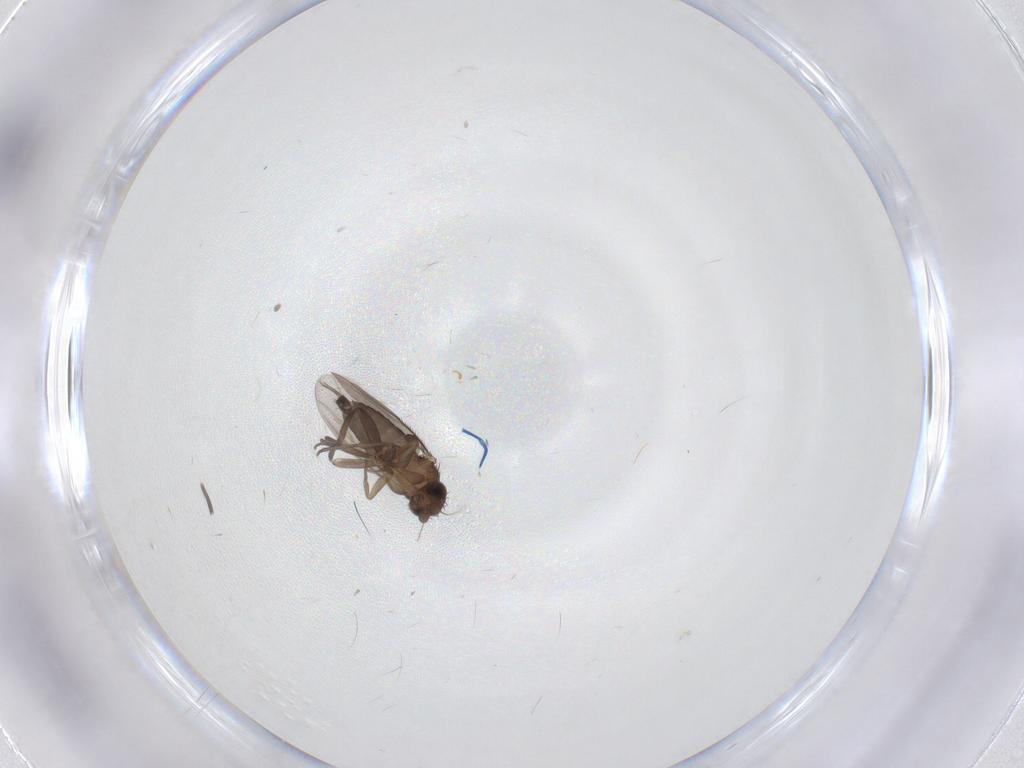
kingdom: Animalia
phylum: Arthropoda
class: Insecta
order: Diptera
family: Phoridae
